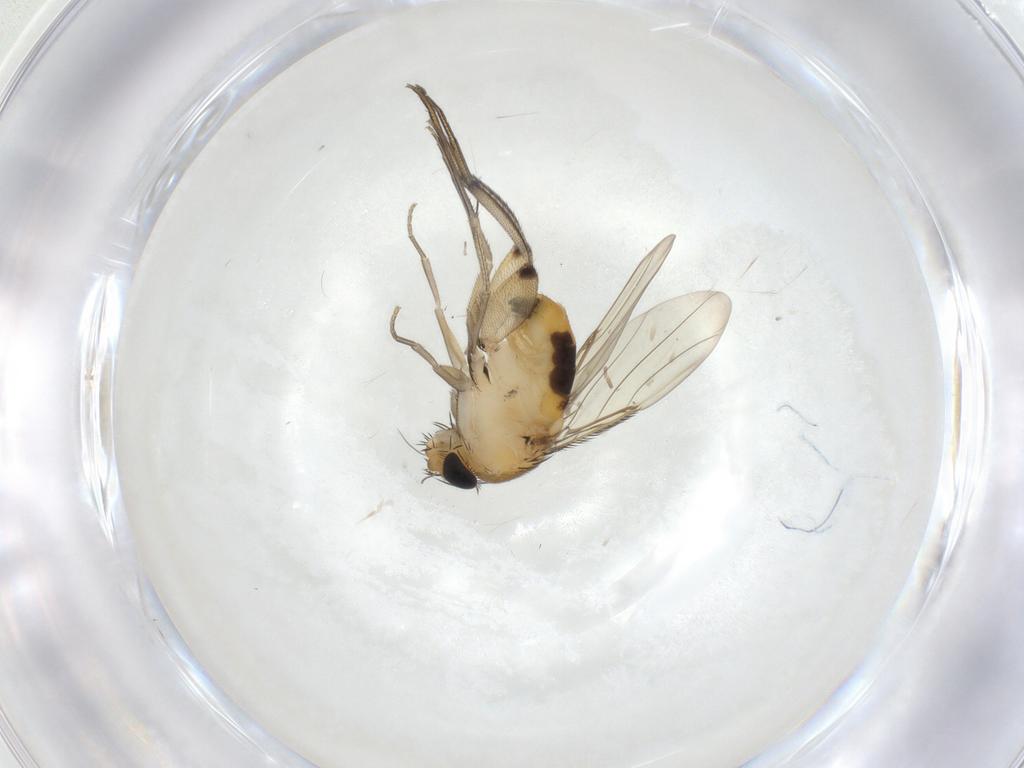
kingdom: Animalia
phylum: Arthropoda
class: Insecta
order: Diptera
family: Phoridae
